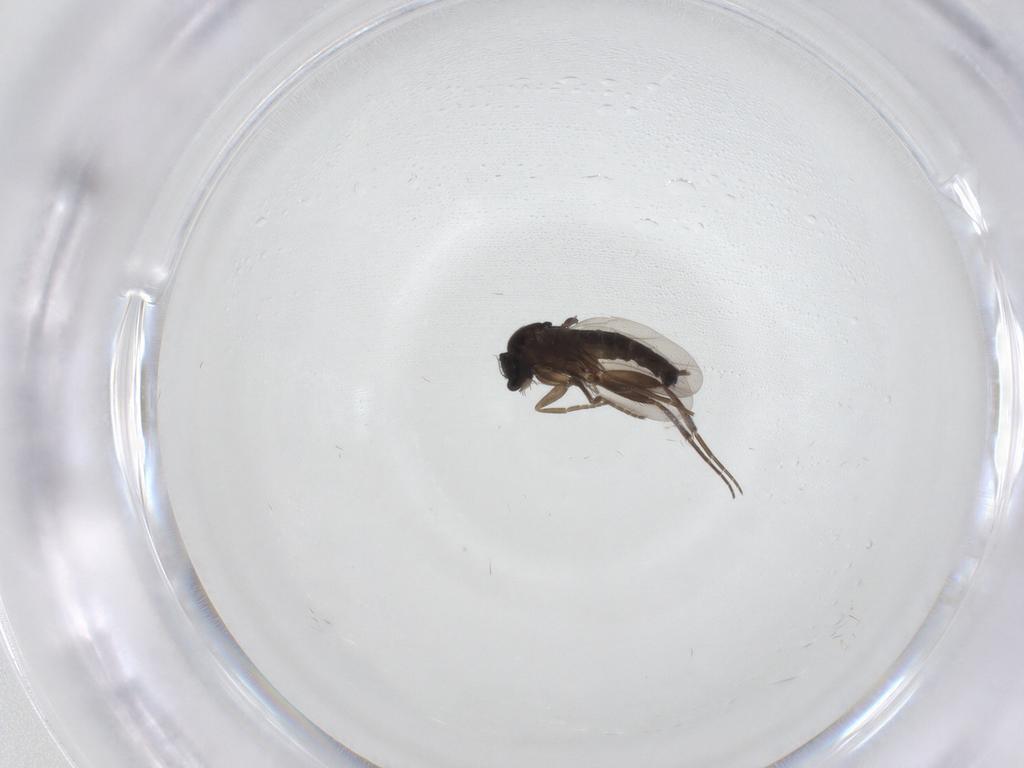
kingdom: Animalia
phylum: Arthropoda
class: Insecta
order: Diptera
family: Phoridae
